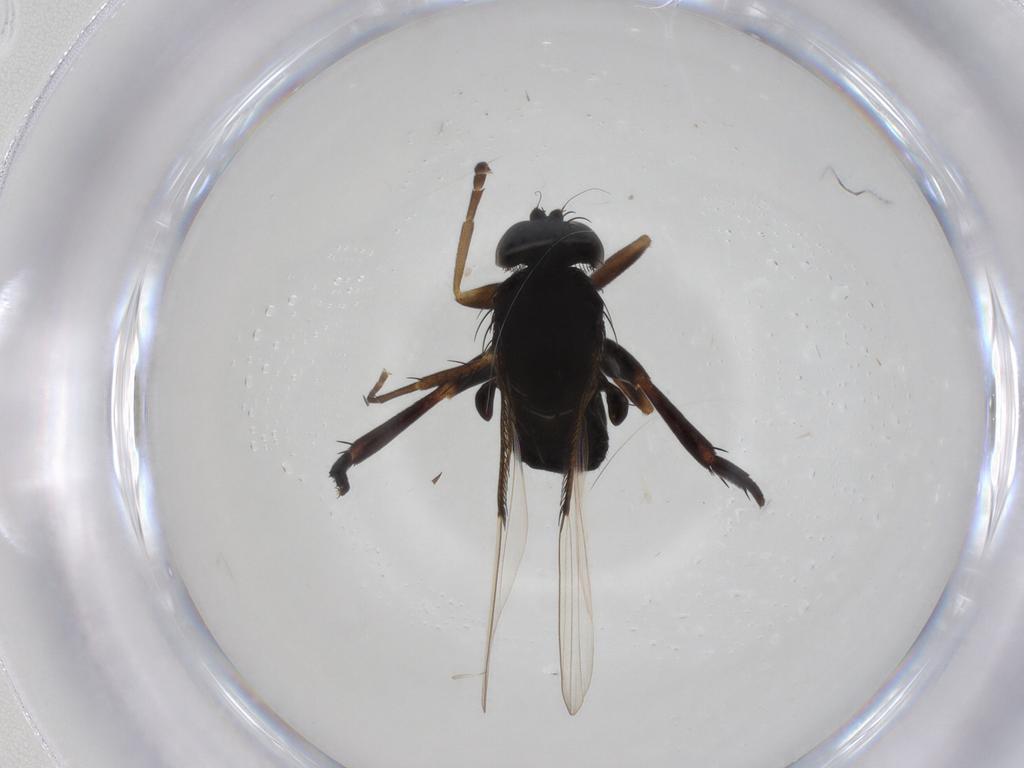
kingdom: Animalia
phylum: Arthropoda
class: Insecta
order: Diptera
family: Phoridae
